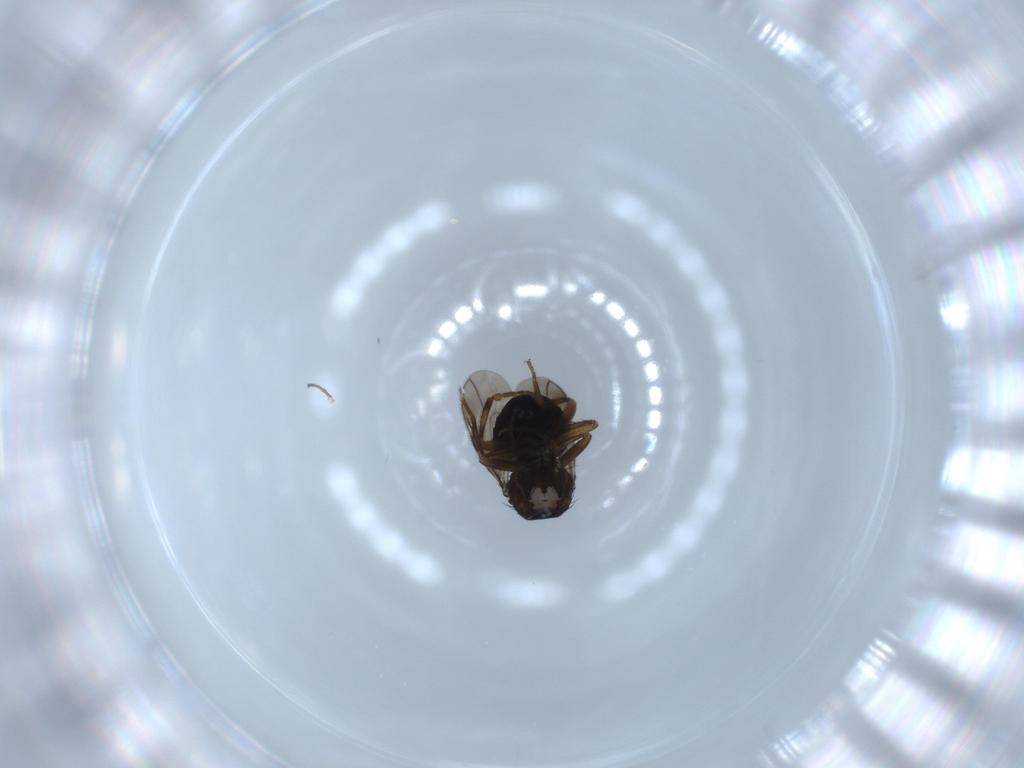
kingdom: Animalia
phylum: Arthropoda
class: Insecta
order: Diptera
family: Sphaeroceridae
